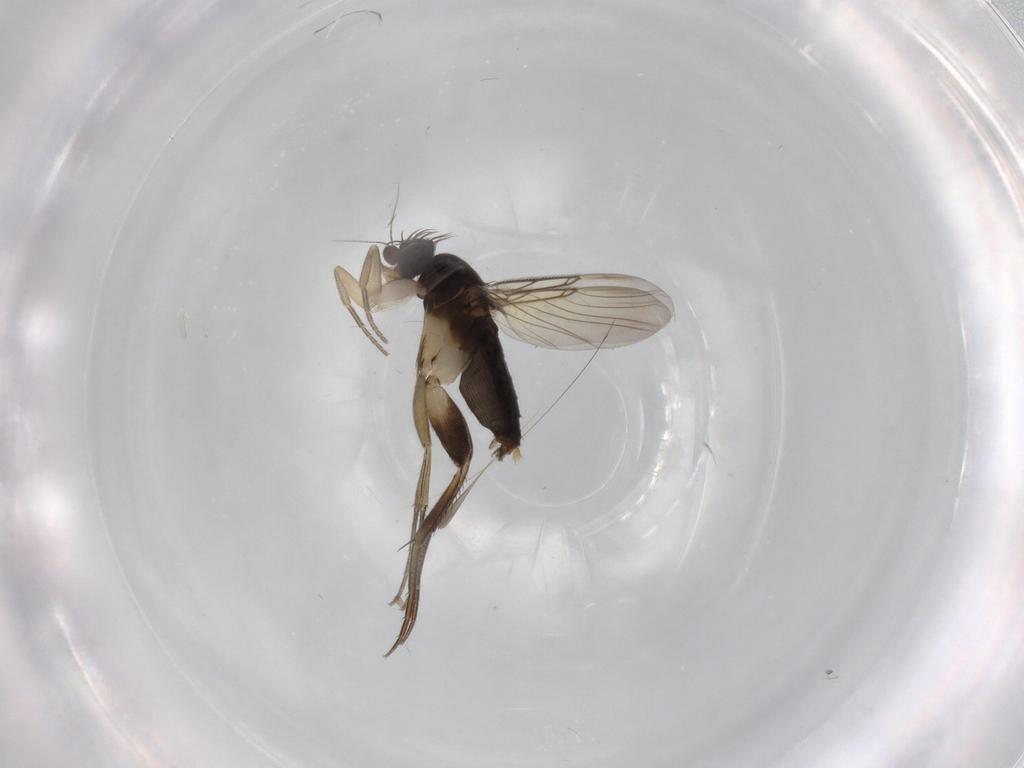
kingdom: Animalia
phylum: Arthropoda
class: Insecta
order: Diptera
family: Phoridae
